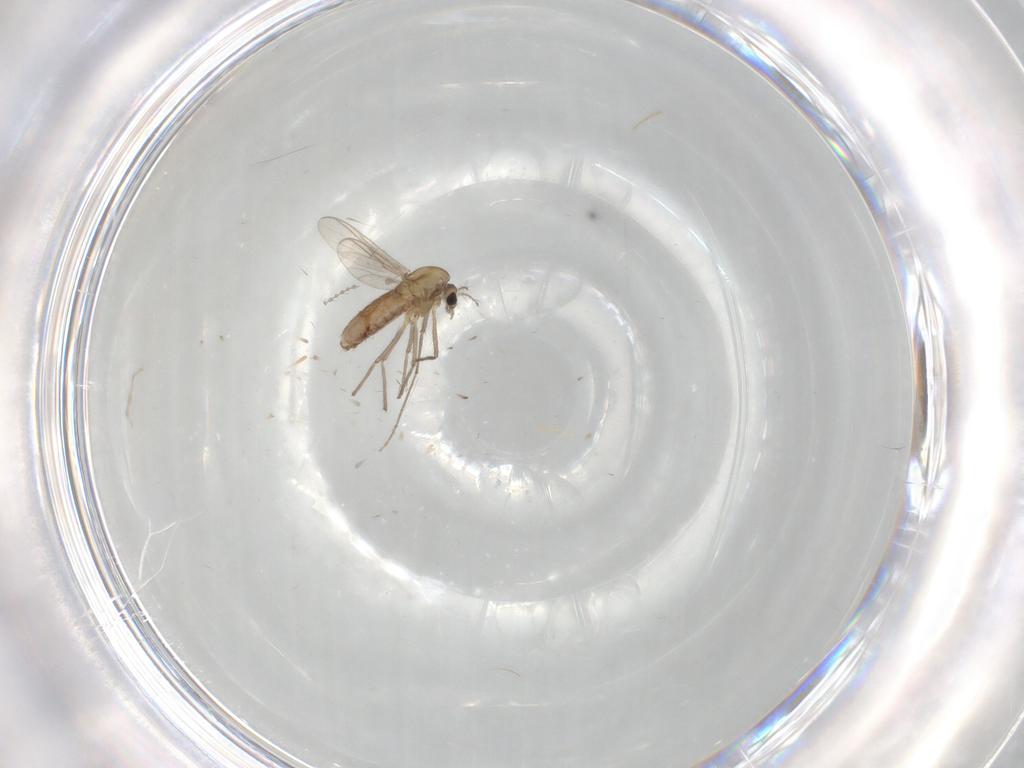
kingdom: Animalia
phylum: Arthropoda
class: Insecta
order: Diptera
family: Chironomidae
